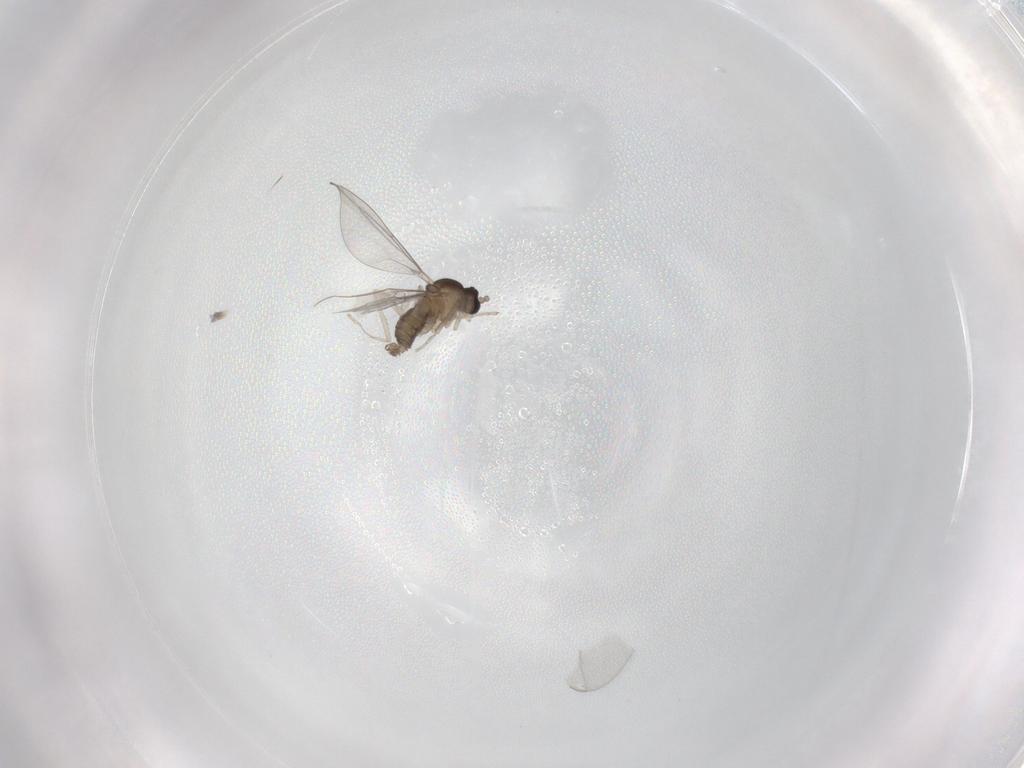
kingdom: Animalia
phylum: Arthropoda
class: Insecta
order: Diptera
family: Cecidomyiidae
